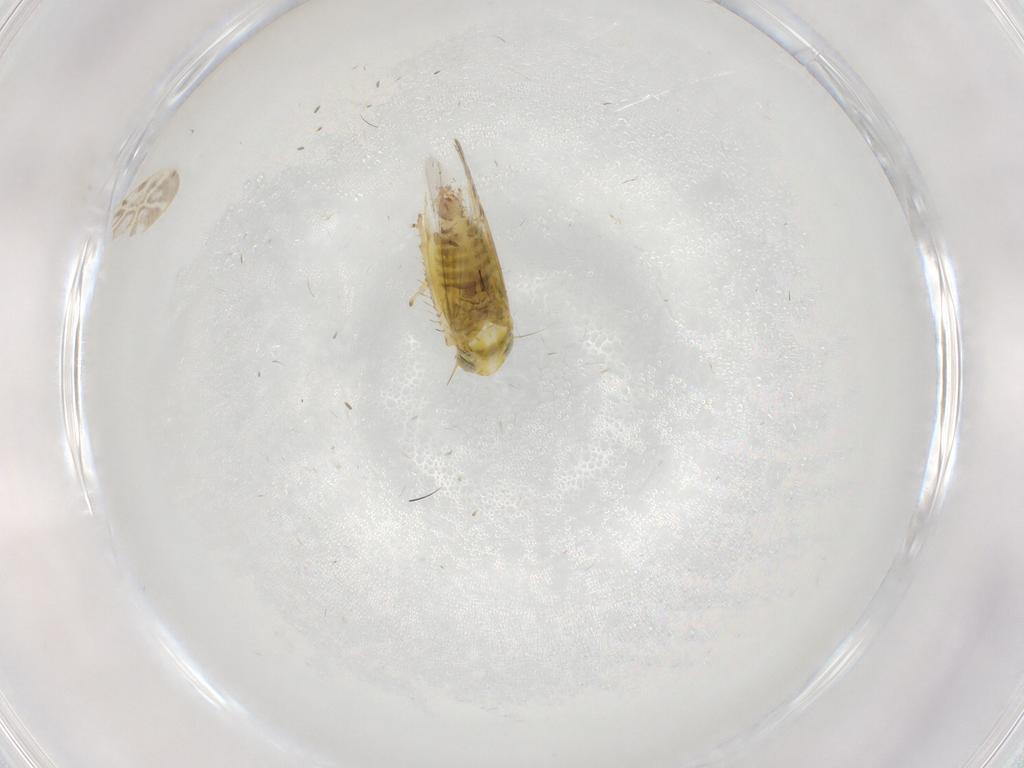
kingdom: Animalia
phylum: Arthropoda
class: Insecta
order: Hemiptera
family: Cicadellidae
